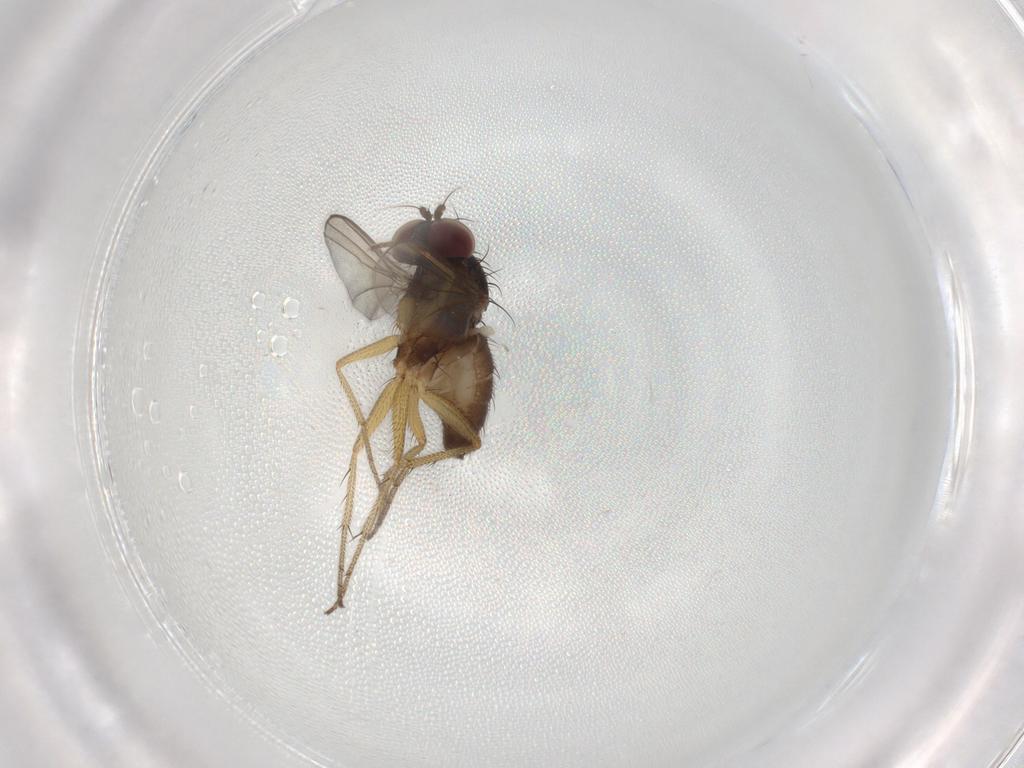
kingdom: Animalia
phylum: Arthropoda
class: Insecta
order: Diptera
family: Dolichopodidae
